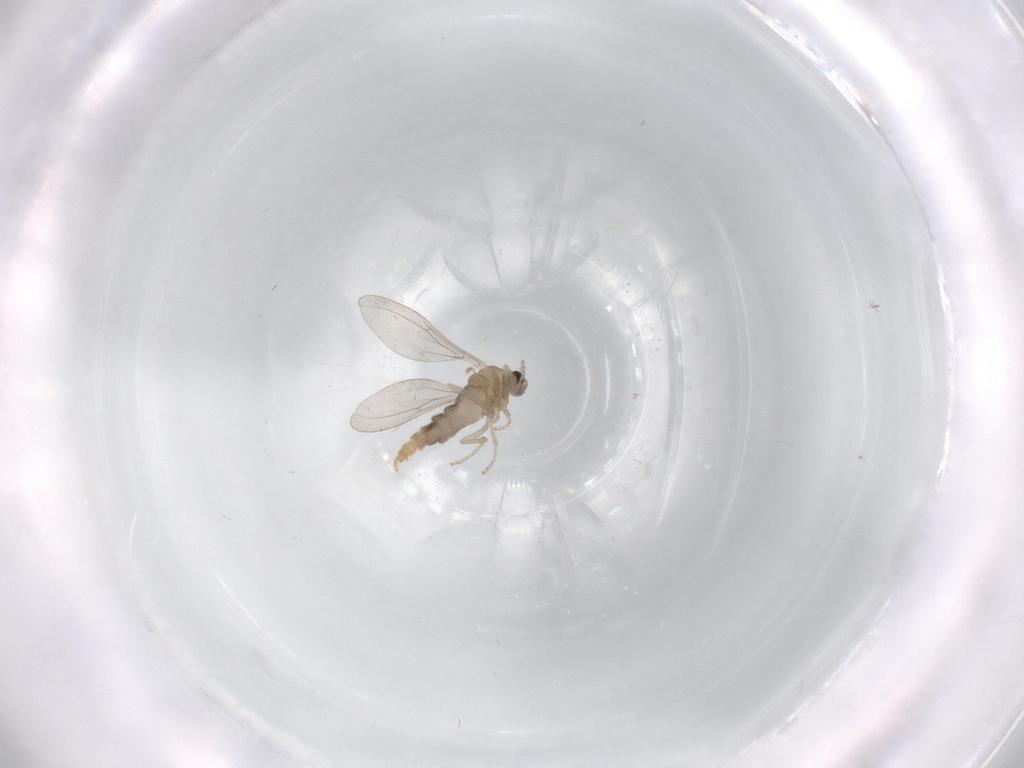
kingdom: Animalia
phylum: Arthropoda
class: Insecta
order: Diptera
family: Cecidomyiidae
